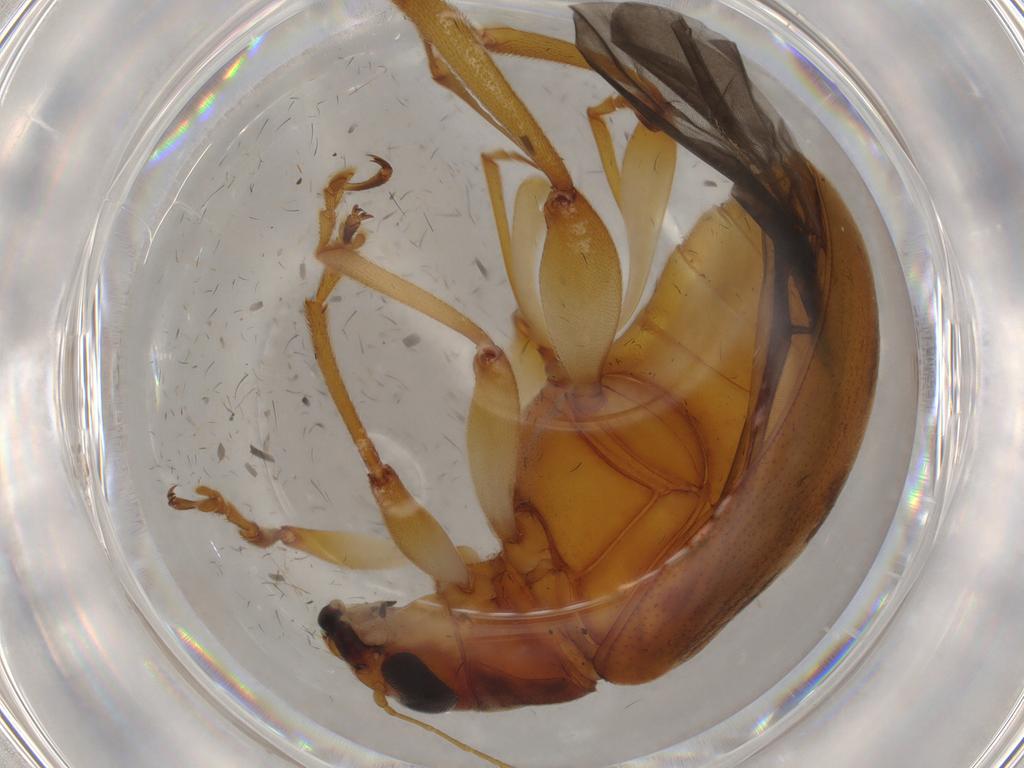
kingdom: Animalia
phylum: Arthropoda
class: Insecta
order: Coleoptera
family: Chrysomelidae
